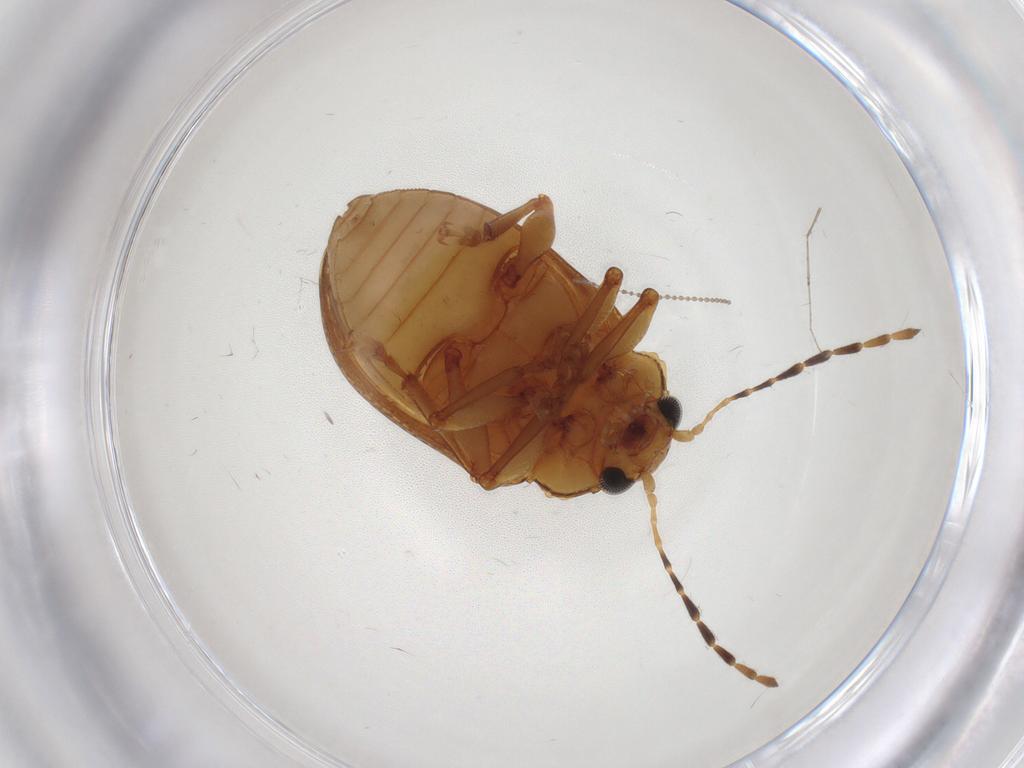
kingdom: Animalia
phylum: Arthropoda
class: Insecta
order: Coleoptera
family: Chrysomelidae
